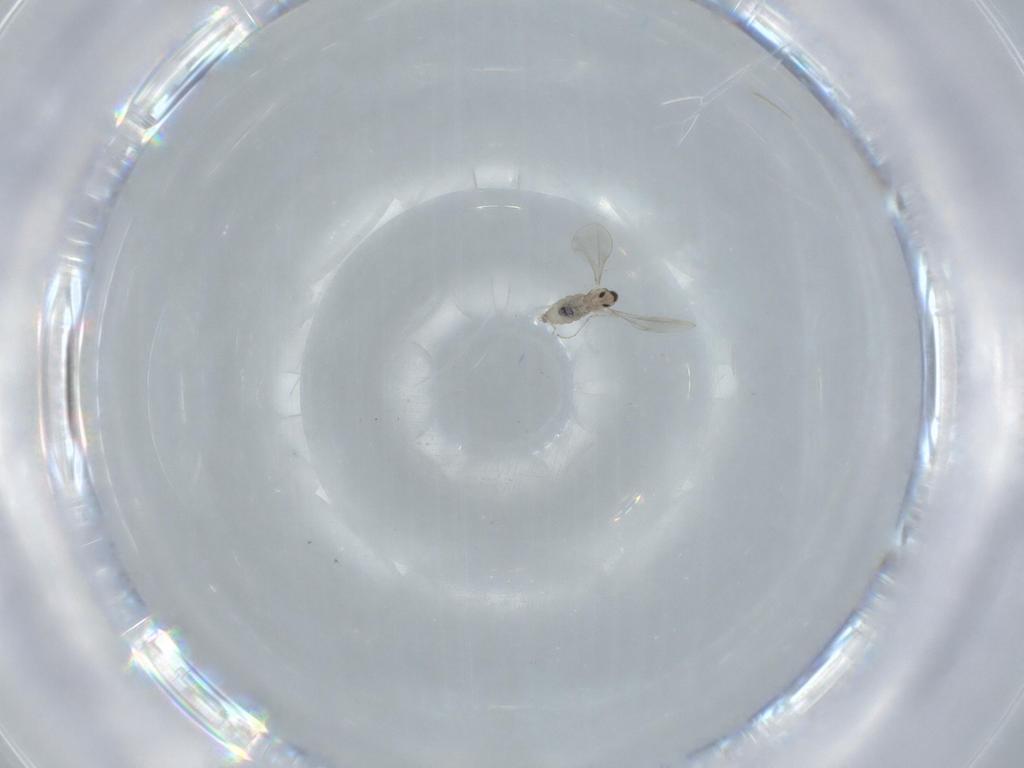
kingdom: Animalia
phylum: Arthropoda
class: Insecta
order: Diptera
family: Cecidomyiidae
